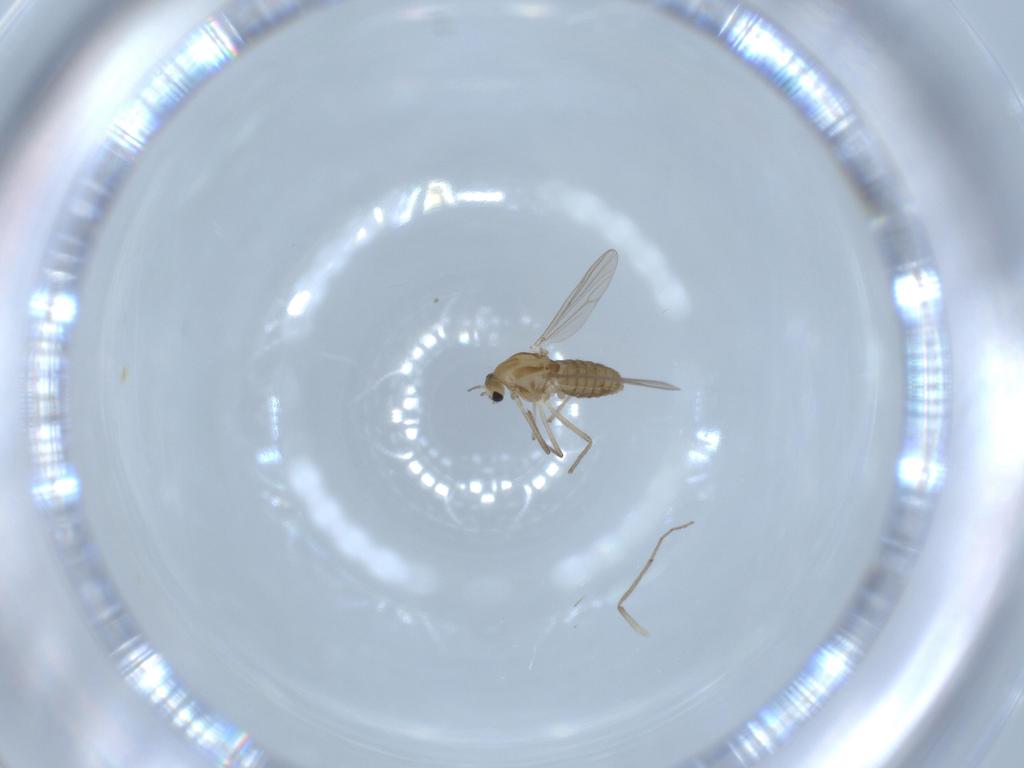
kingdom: Animalia
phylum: Arthropoda
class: Insecta
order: Diptera
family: Chironomidae
